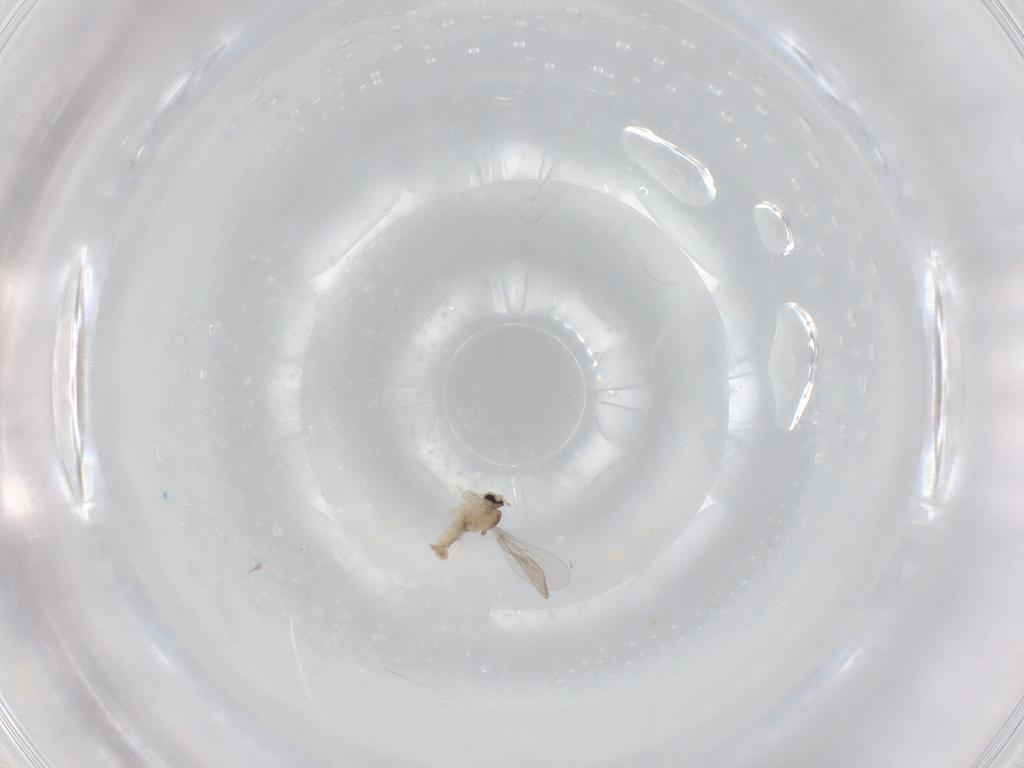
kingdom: Animalia
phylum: Arthropoda
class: Insecta
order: Diptera
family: Cecidomyiidae
